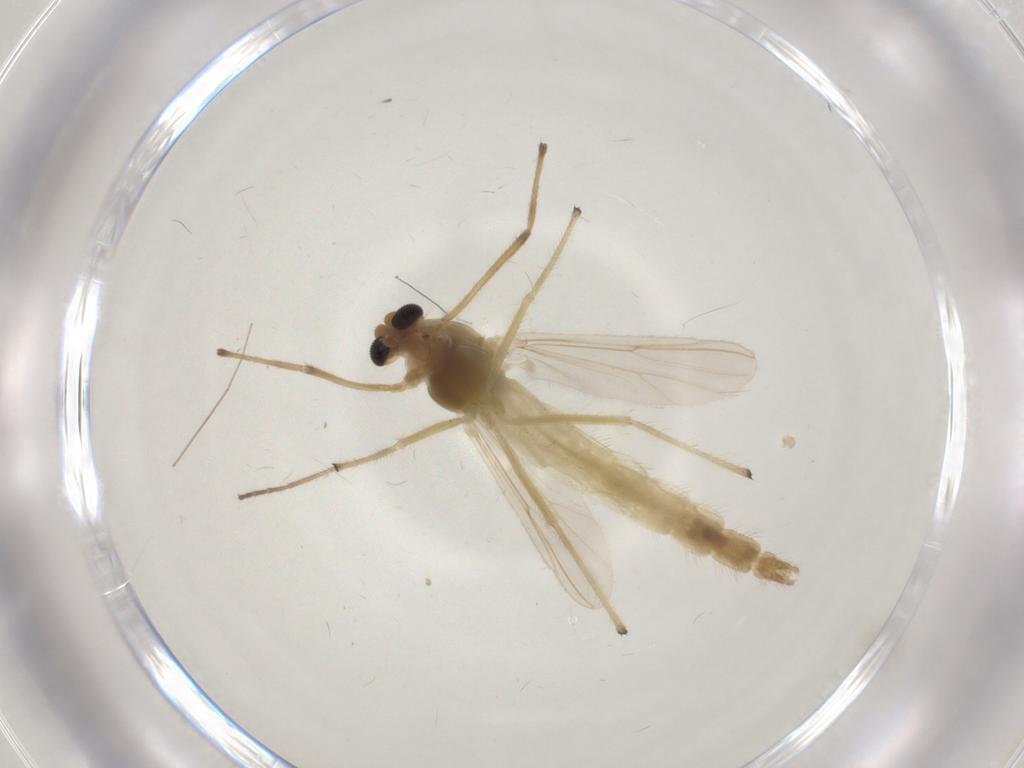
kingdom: Animalia
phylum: Arthropoda
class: Insecta
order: Diptera
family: Chironomidae
